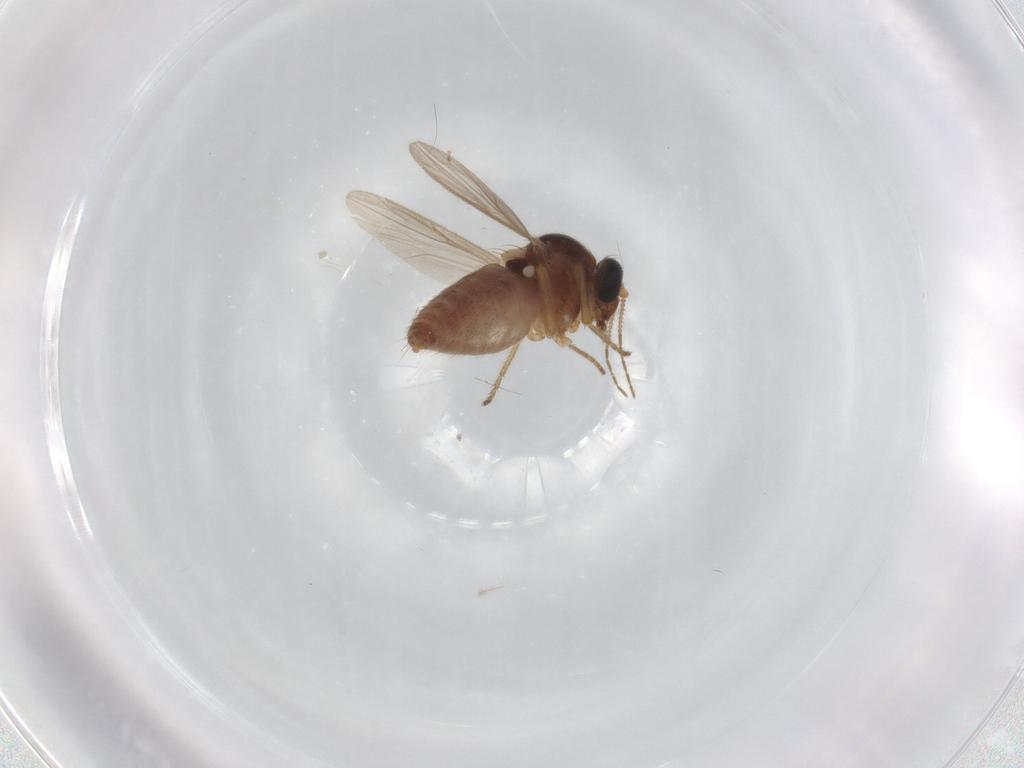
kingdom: Animalia
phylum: Arthropoda
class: Insecta
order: Diptera
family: Ceratopogonidae
